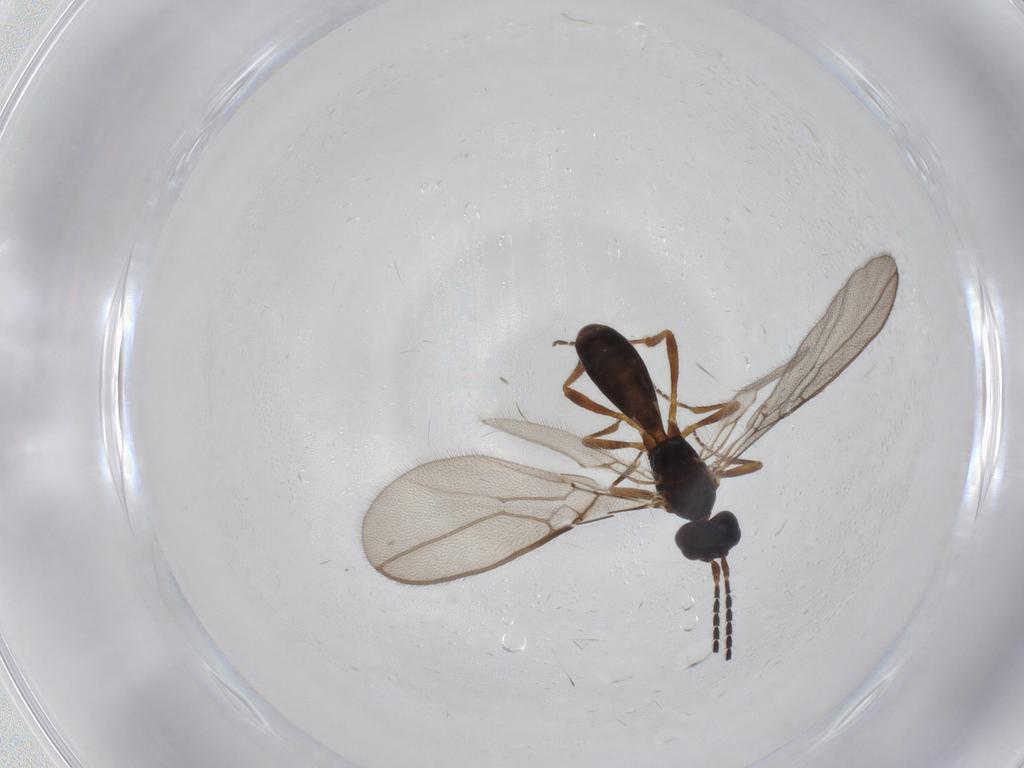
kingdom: Animalia
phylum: Arthropoda
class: Insecta
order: Hymenoptera
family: Braconidae
